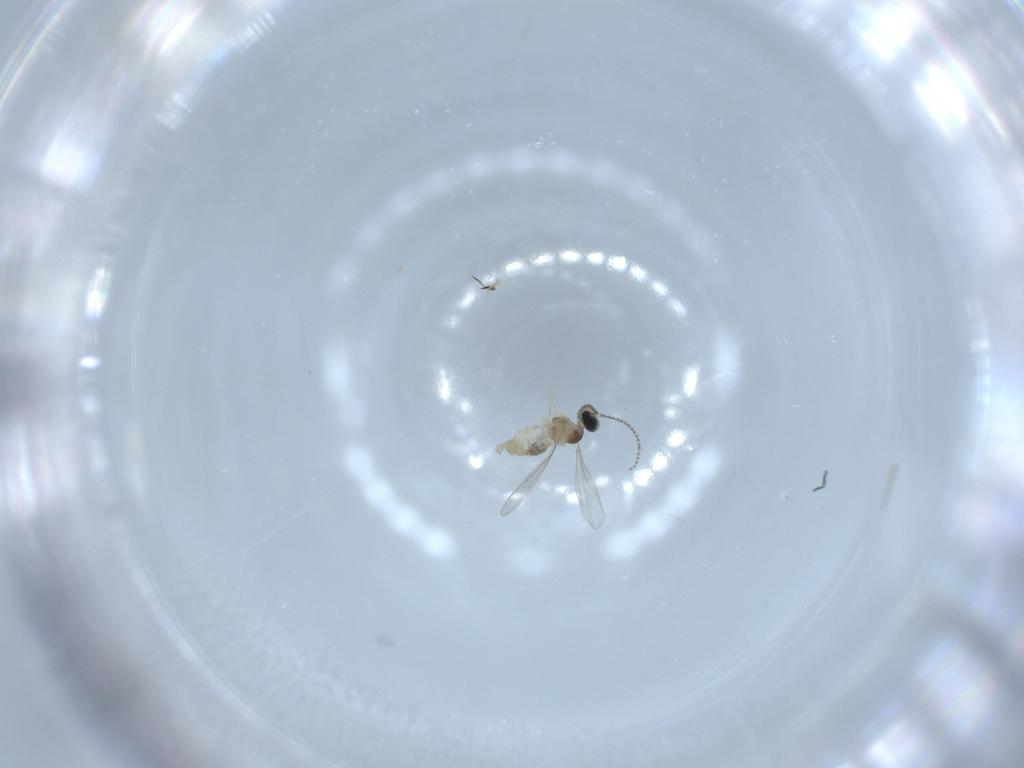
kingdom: Animalia
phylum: Arthropoda
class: Insecta
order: Diptera
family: Cecidomyiidae
